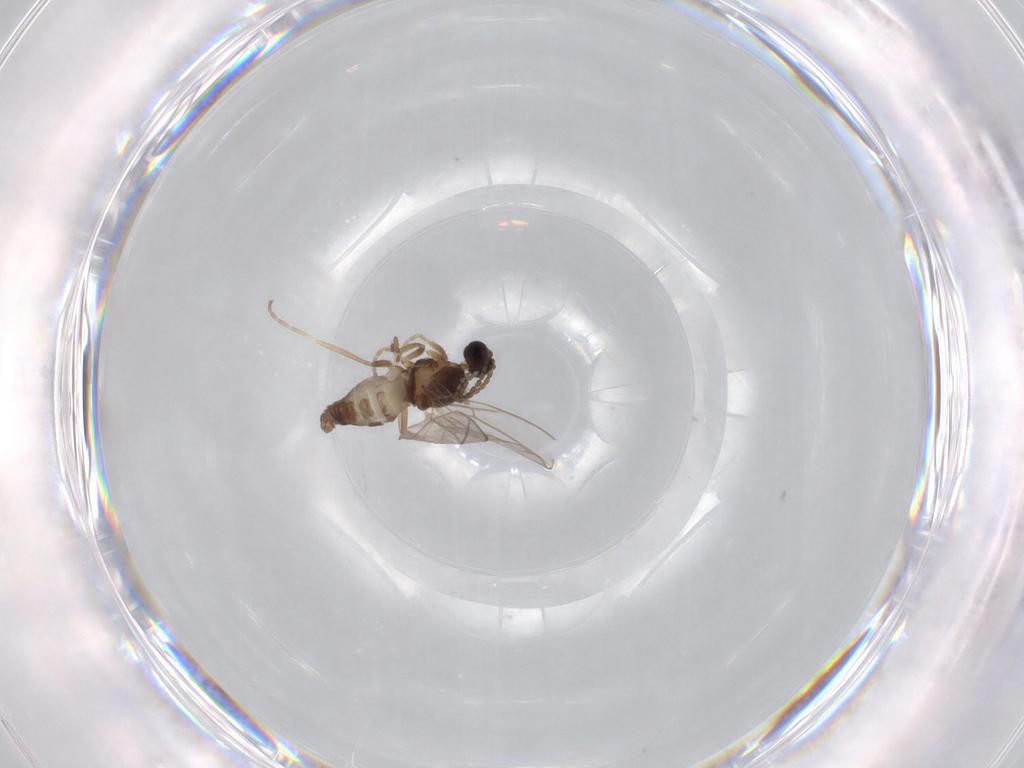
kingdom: Animalia
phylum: Arthropoda
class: Insecta
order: Diptera
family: Cecidomyiidae
